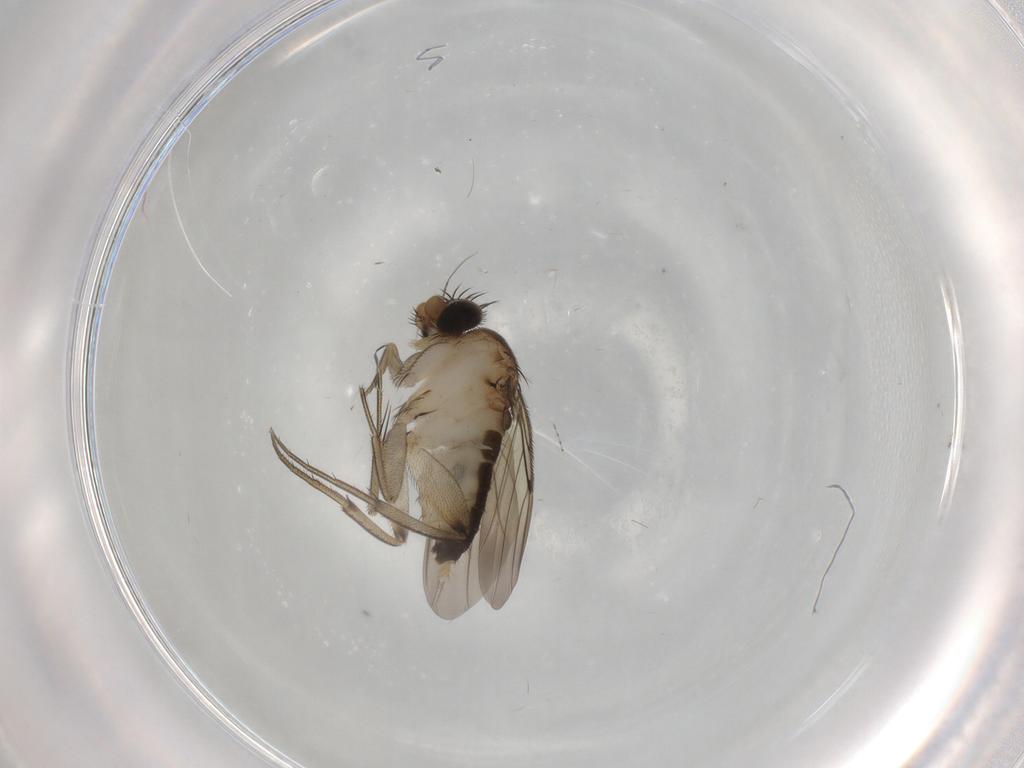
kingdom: Animalia
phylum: Arthropoda
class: Insecta
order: Diptera
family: Phoridae
